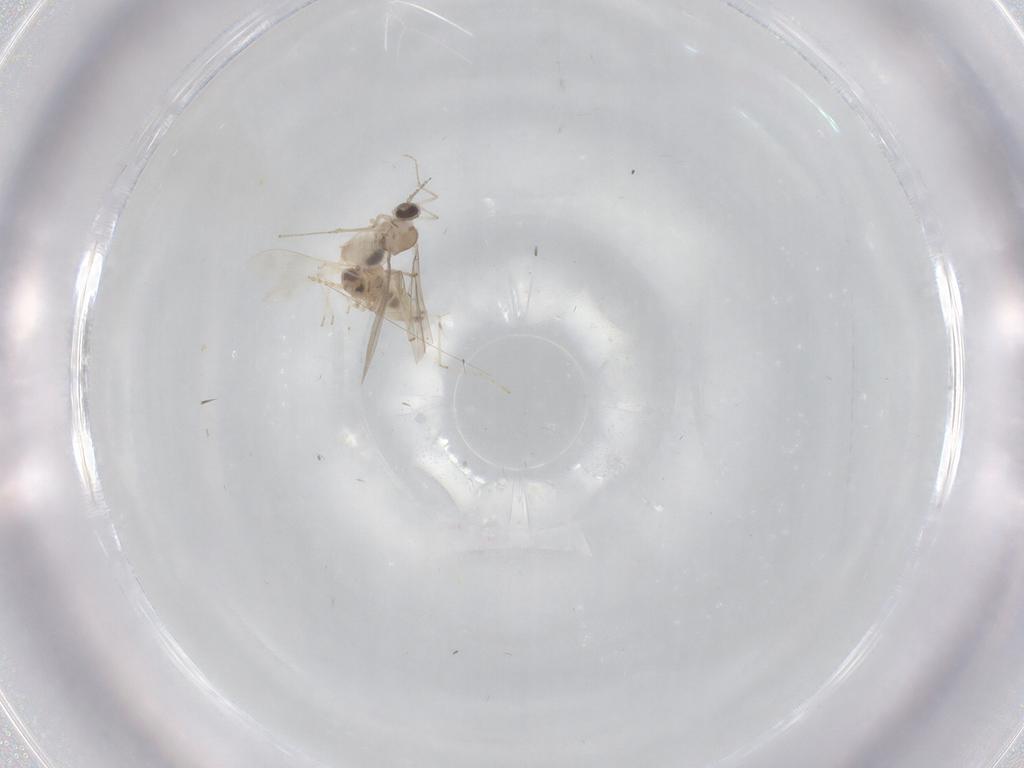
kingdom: Animalia
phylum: Arthropoda
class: Insecta
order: Diptera
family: Cecidomyiidae
